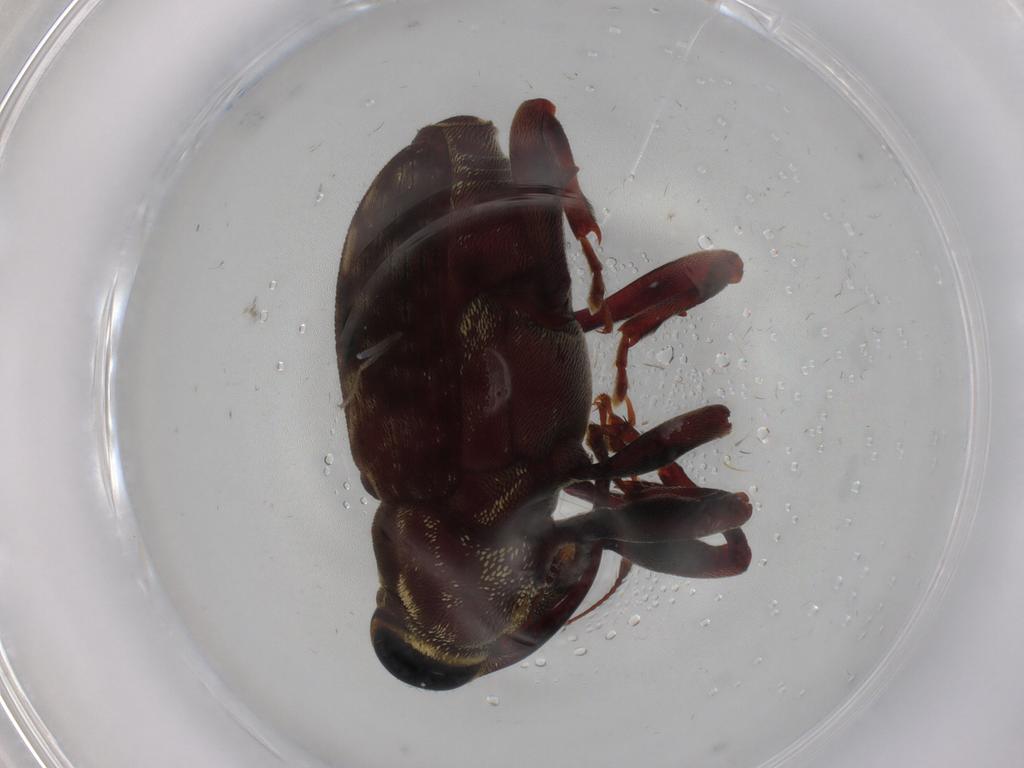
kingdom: Animalia
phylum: Arthropoda
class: Insecta
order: Coleoptera
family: Curculionidae
